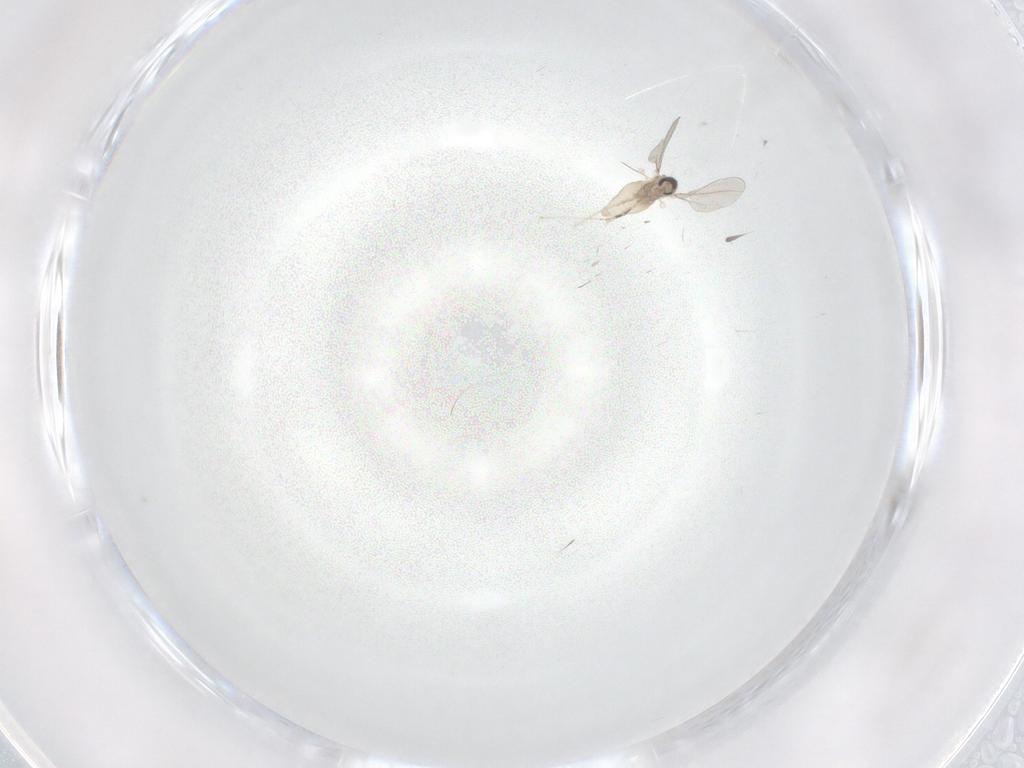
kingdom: Animalia
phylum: Arthropoda
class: Insecta
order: Diptera
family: Cecidomyiidae
